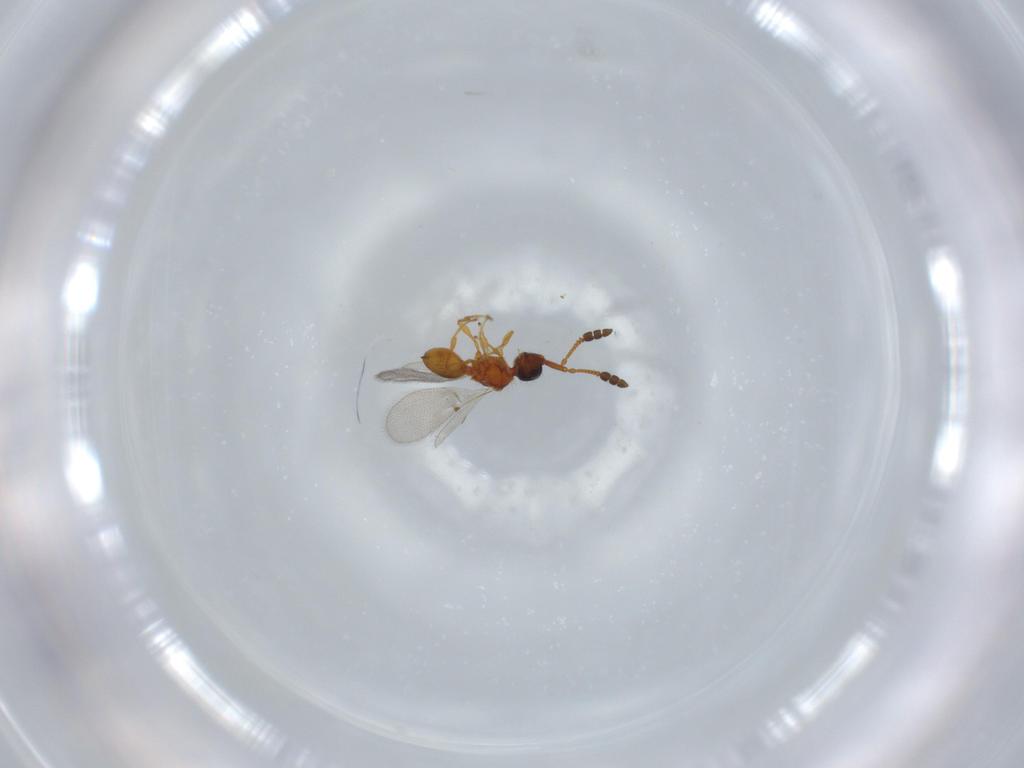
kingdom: Animalia
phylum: Arthropoda
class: Insecta
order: Hymenoptera
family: Diapriidae
